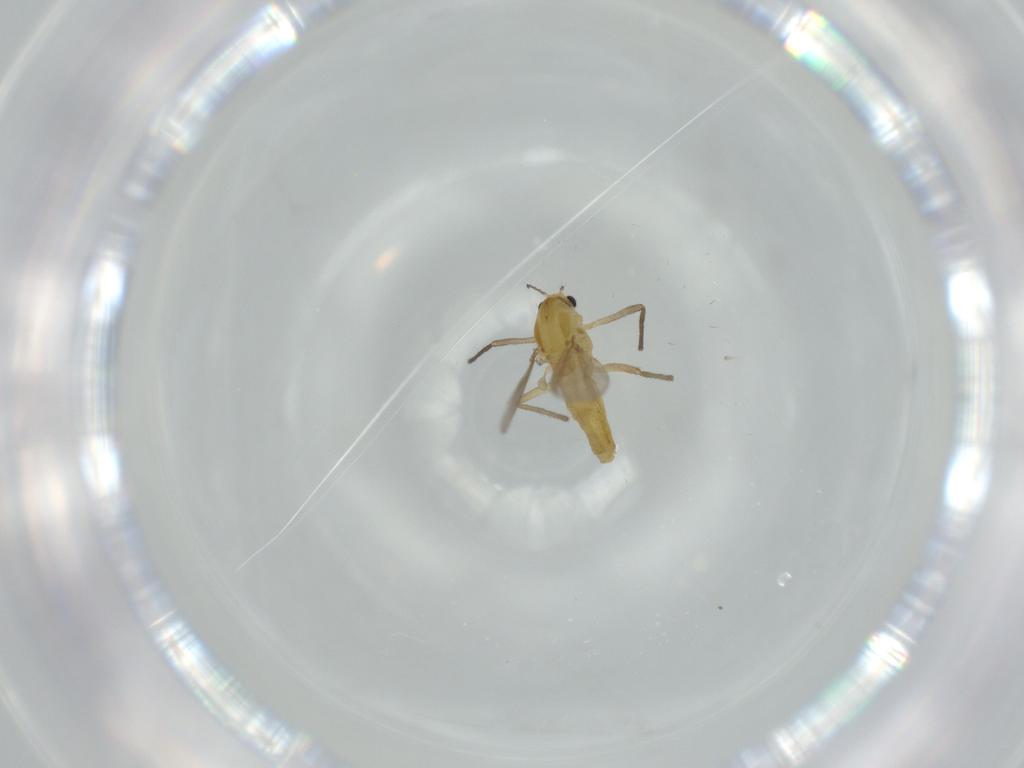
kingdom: Animalia
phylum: Arthropoda
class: Insecta
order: Diptera
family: Chironomidae
